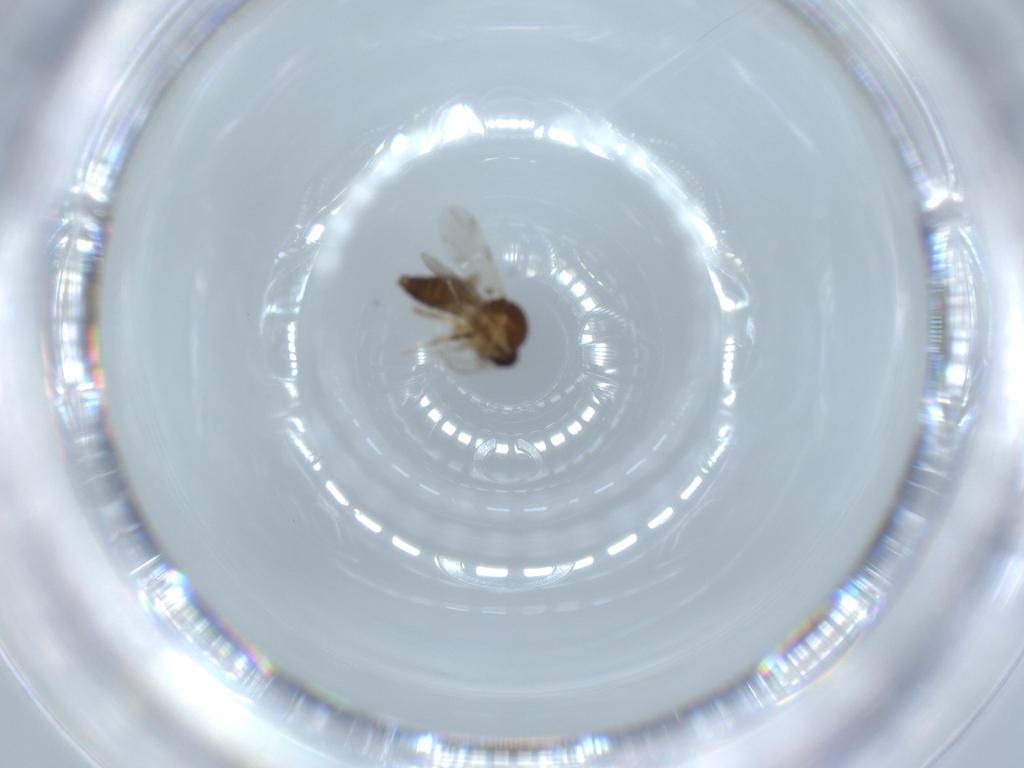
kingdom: Animalia
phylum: Arthropoda
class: Insecta
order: Diptera
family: Ceratopogonidae
